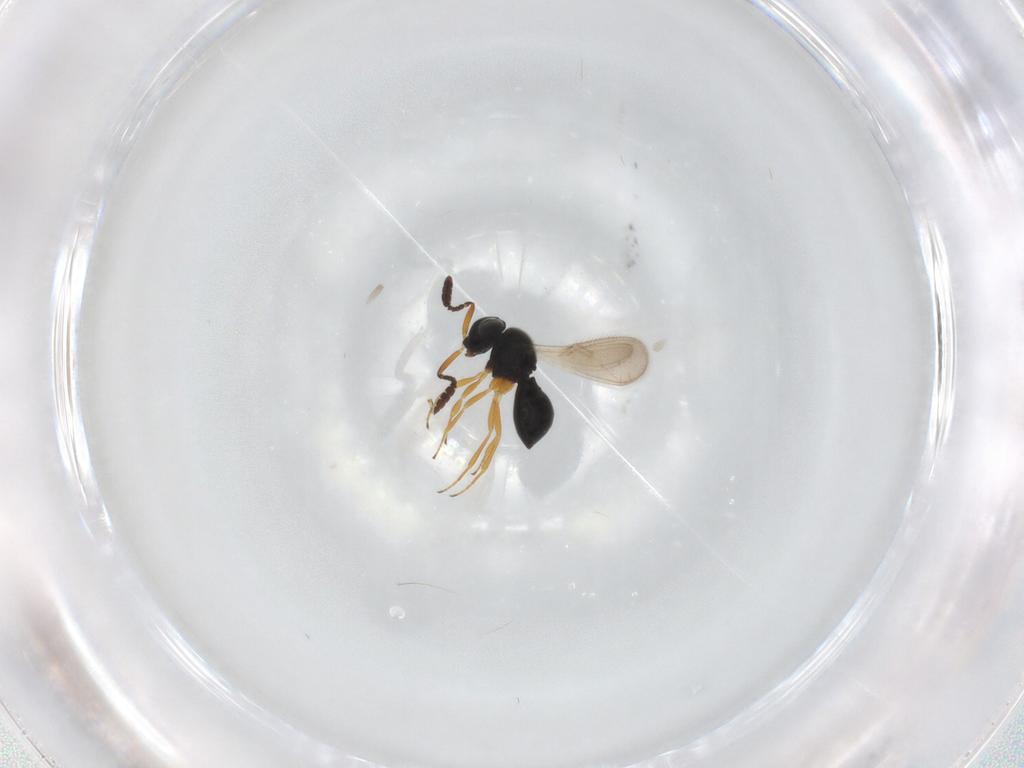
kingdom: Animalia
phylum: Arthropoda
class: Insecta
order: Hymenoptera
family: Scelionidae
